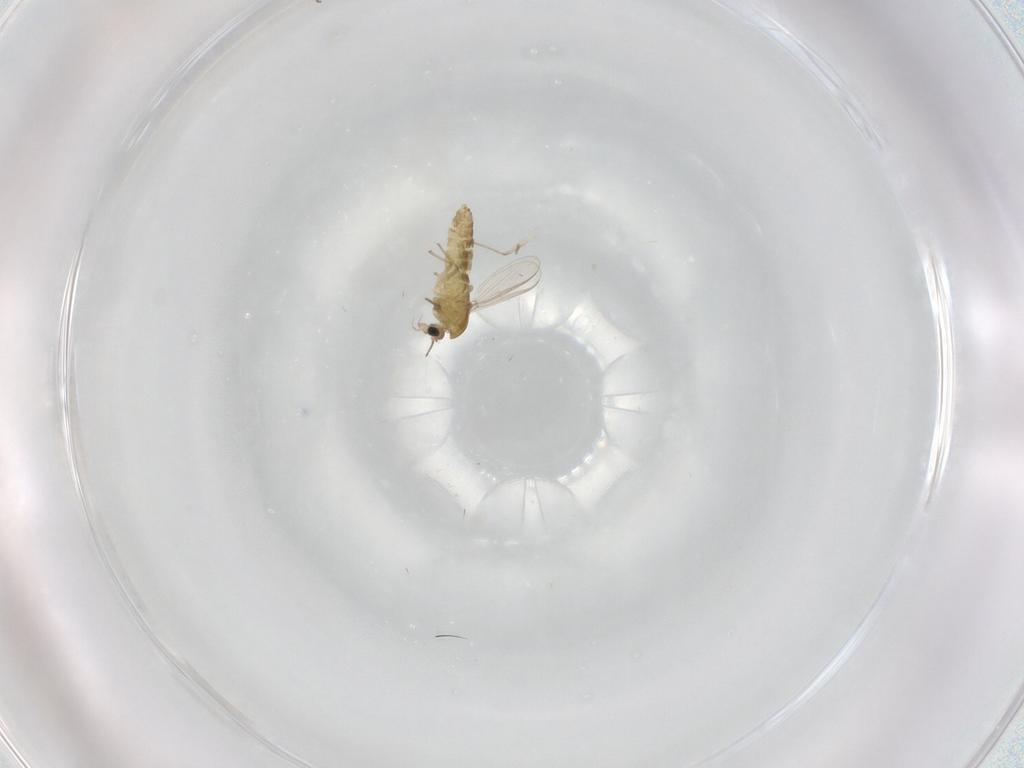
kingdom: Animalia
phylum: Arthropoda
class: Insecta
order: Diptera
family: Chironomidae
